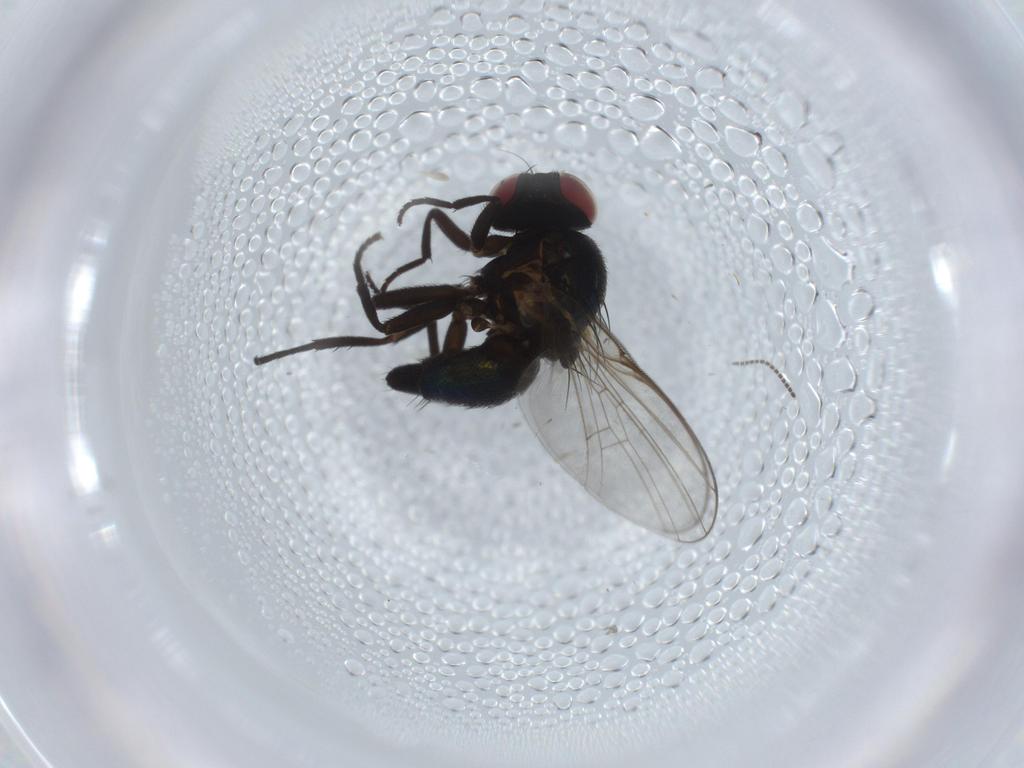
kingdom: Animalia
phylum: Arthropoda
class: Insecta
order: Diptera
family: Agromyzidae
